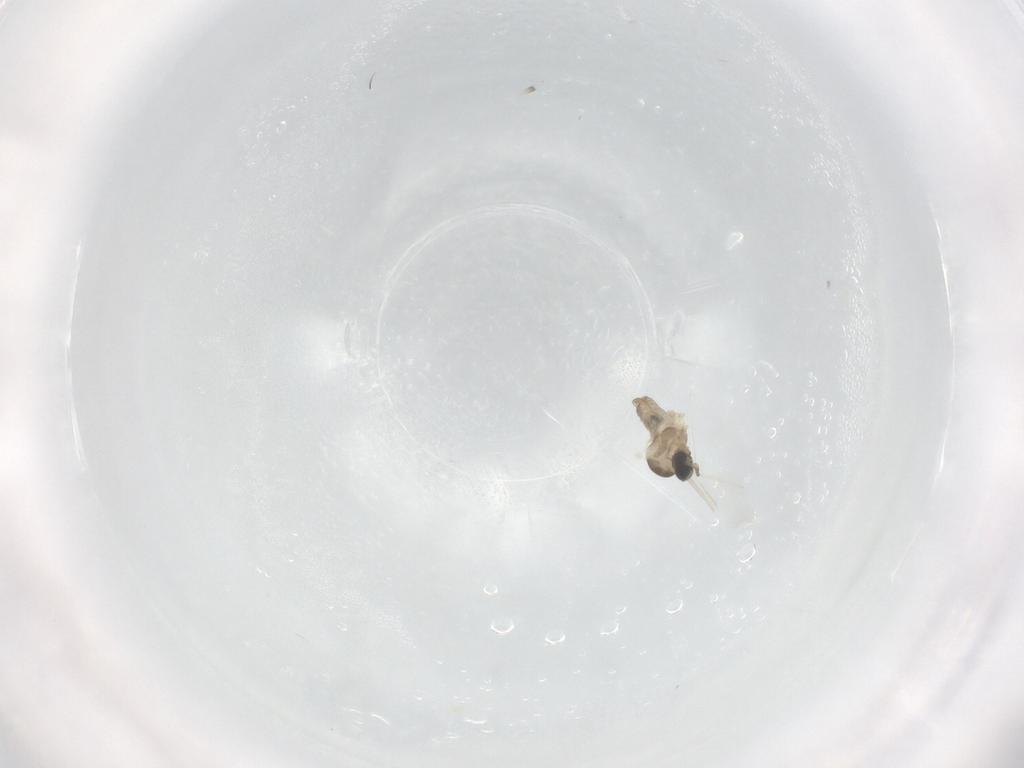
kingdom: Animalia
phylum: Arthropoda
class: Insecta
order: Diptera
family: Cecidomyiidae
